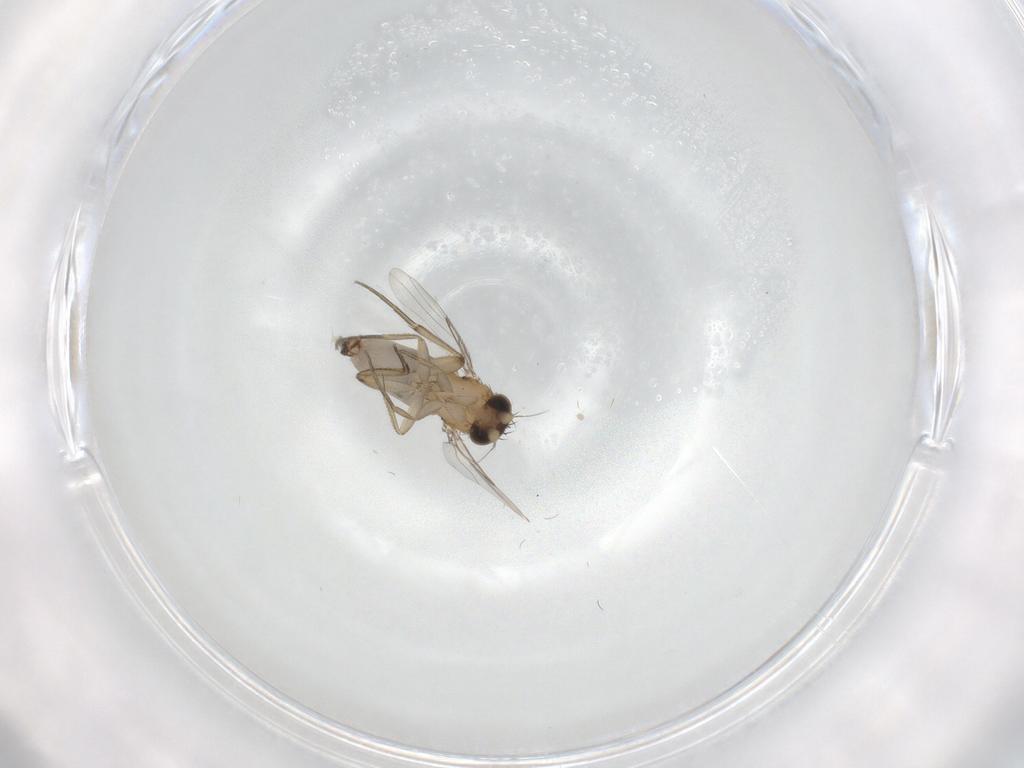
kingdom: Animalia
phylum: Arthropoda
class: Insecta
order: Diptera
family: Phoridae
